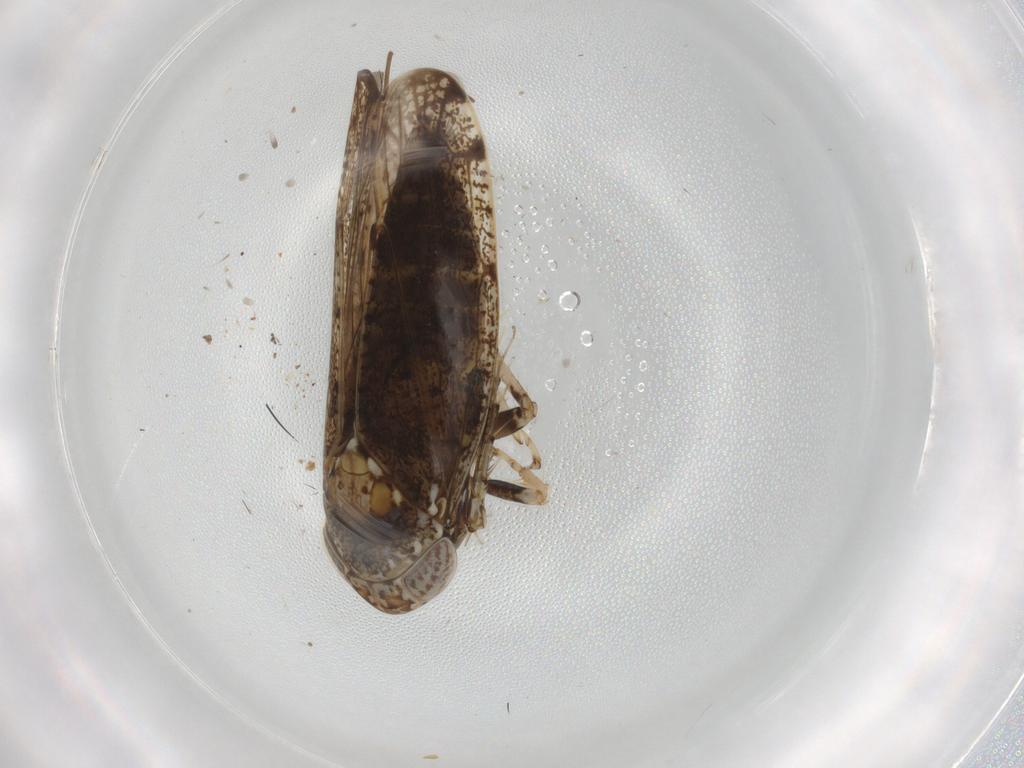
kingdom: Animalia
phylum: Arthropoda
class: Insecta
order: Hemiptera
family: Cicadellidae
